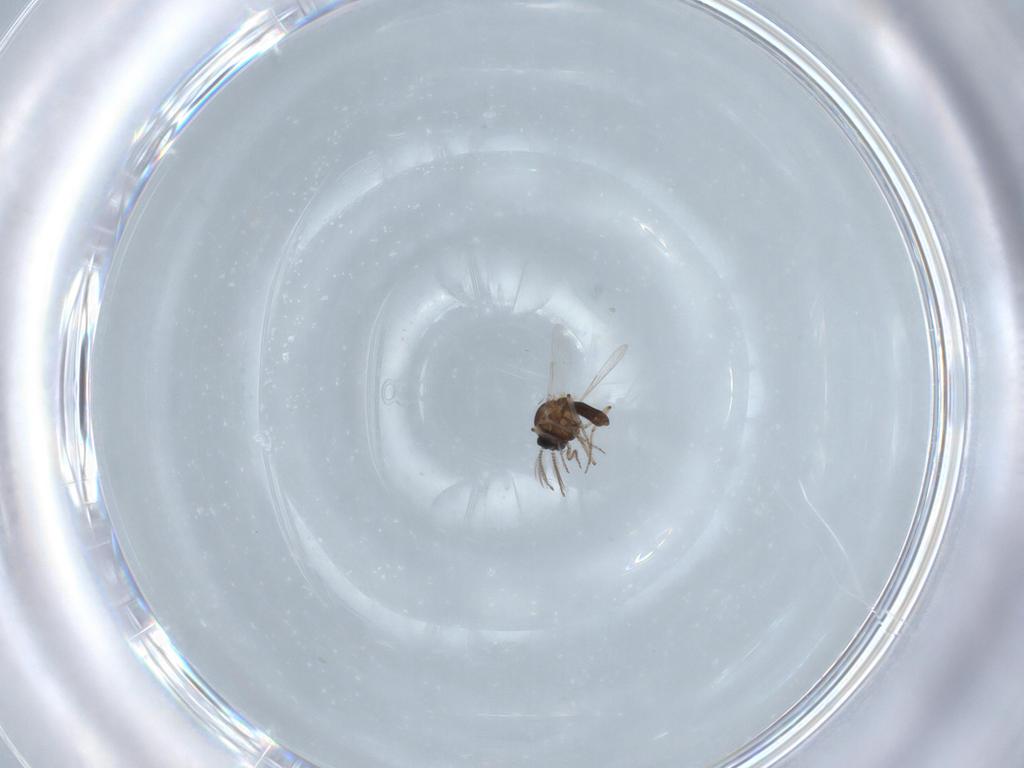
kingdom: Animalia
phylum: Arthropoda
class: Insecta
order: Diptera
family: Ceratopogonidae
